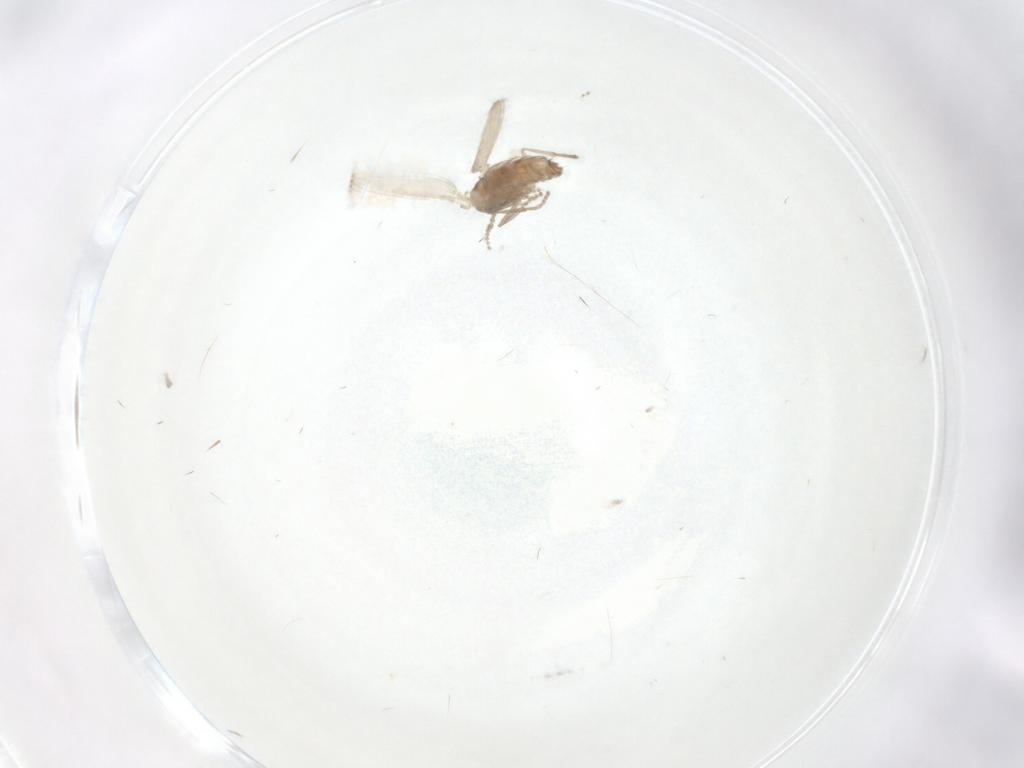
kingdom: Animalia
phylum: Arthropoda
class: Insecta
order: Diptera
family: Psychodidae
